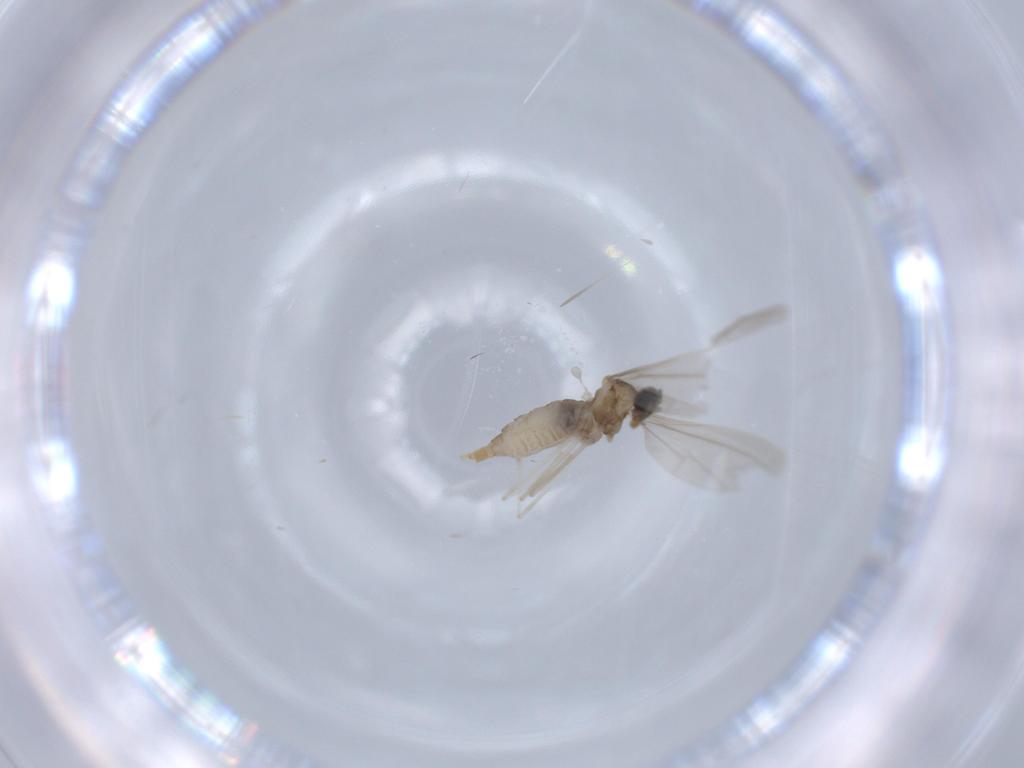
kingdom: Animalia
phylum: Arthropoda
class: Insecta
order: Diptera
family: Cecidomyiidae
